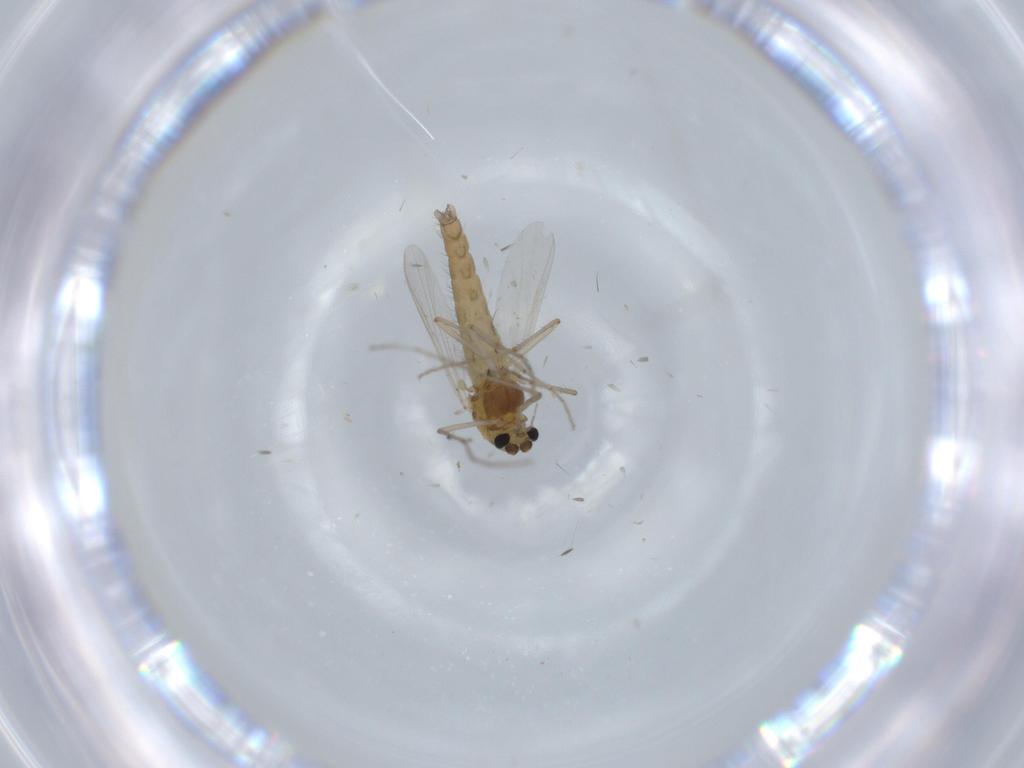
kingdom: Animalia
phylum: Arthropoda
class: Insecta
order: Diptera
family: Chironomidae
